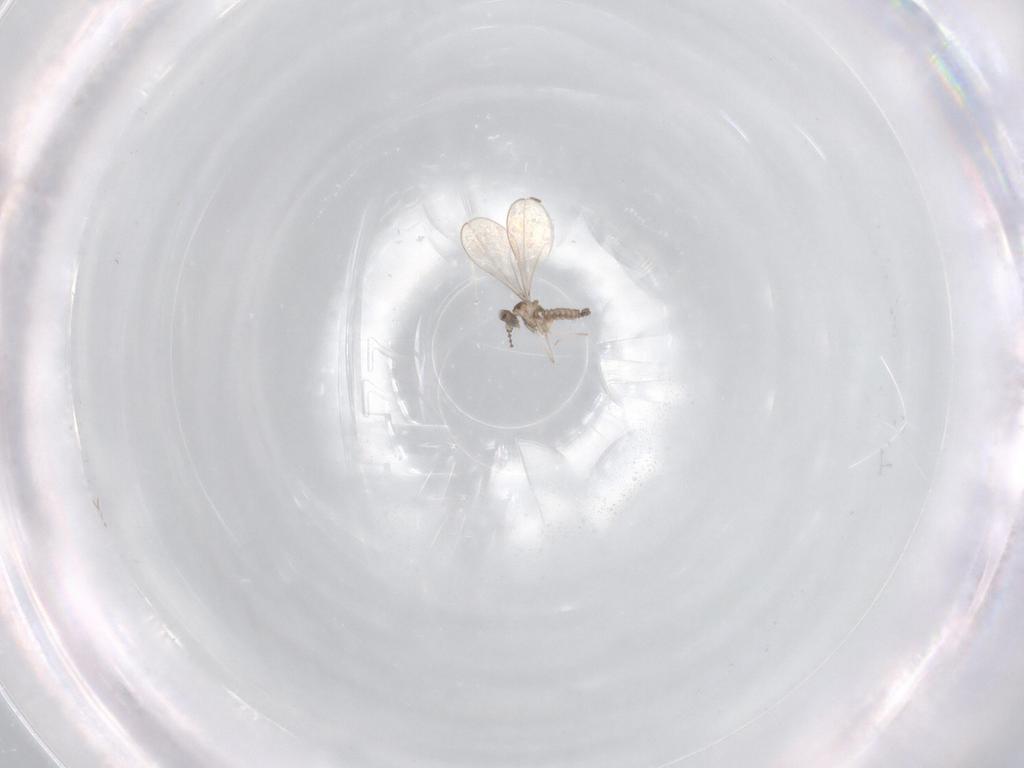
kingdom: Animalia
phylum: Arthropoda
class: Insecta
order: Diptera
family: Cecidomyiidae
